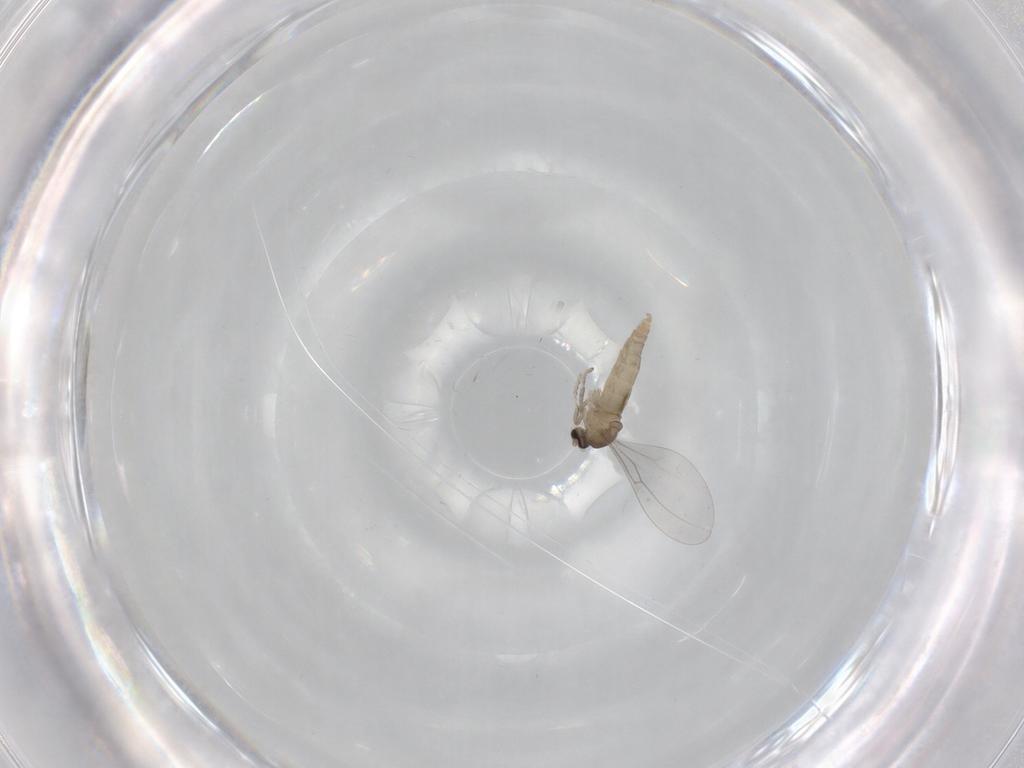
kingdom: Animalia
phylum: Arthropoda
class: Insecta
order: Diptera
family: Cecidomyiidae
